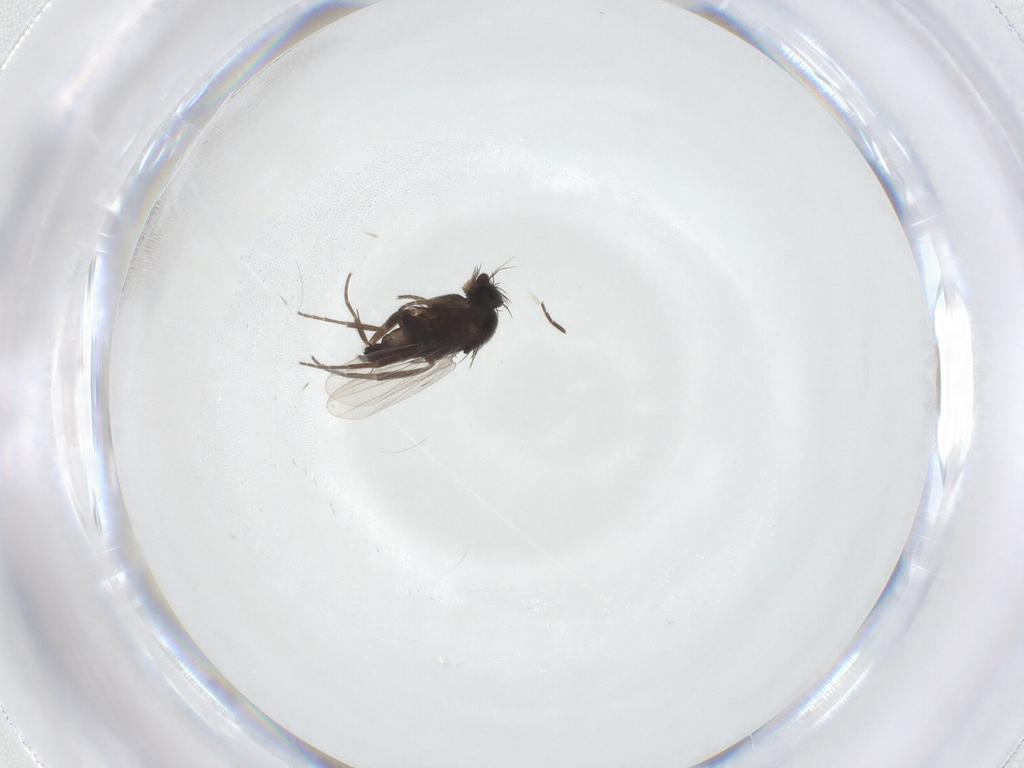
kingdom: Animalia
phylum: Arthropoda
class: Insecta
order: Diptera
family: Phoridae
